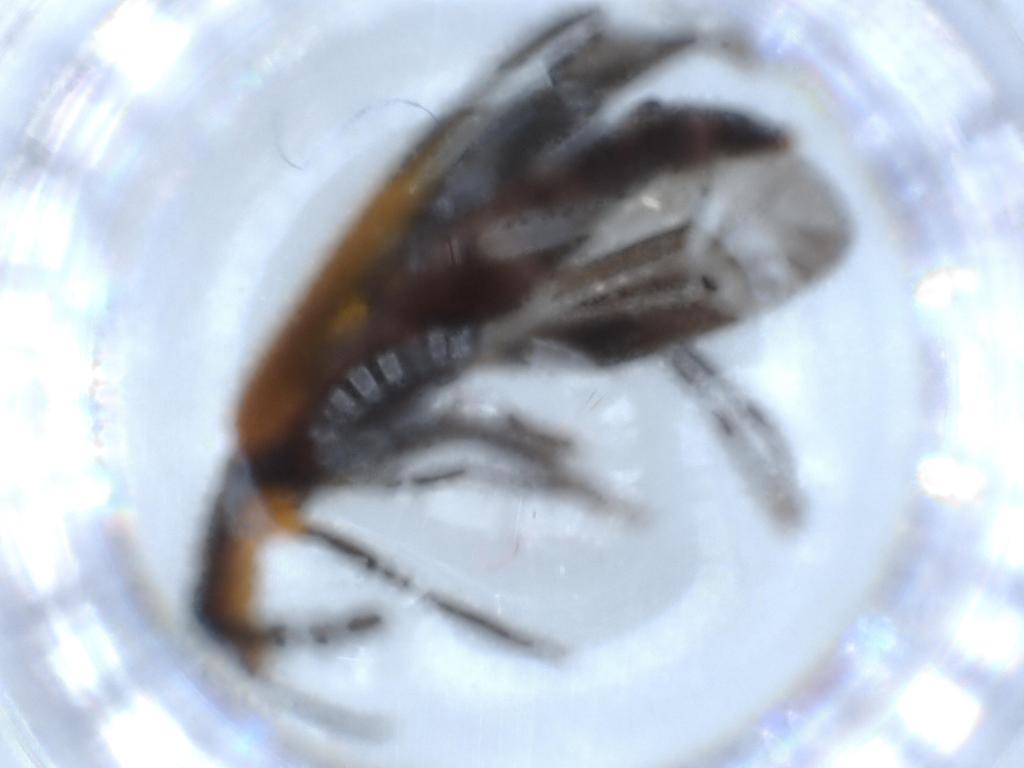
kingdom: Animalia
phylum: Arthropoda
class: Insecta
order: Coleoptera
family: Cleridae
